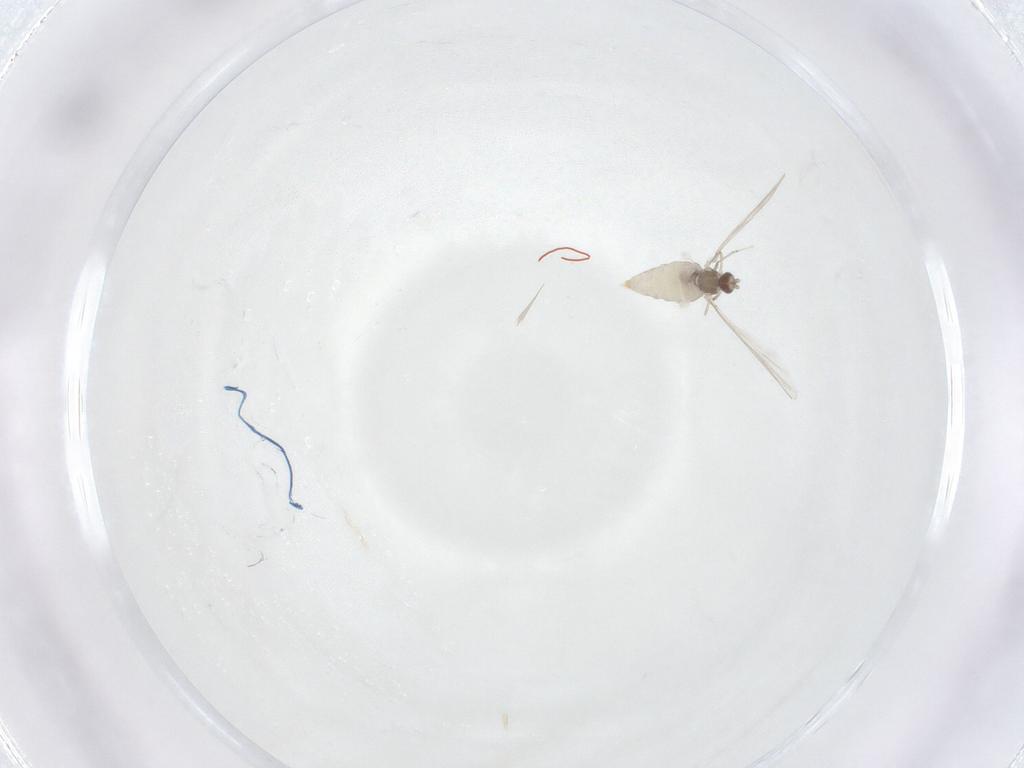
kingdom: Animalia
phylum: Arthropoda
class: Insecta
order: Diptera
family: Cecidomyiidae
